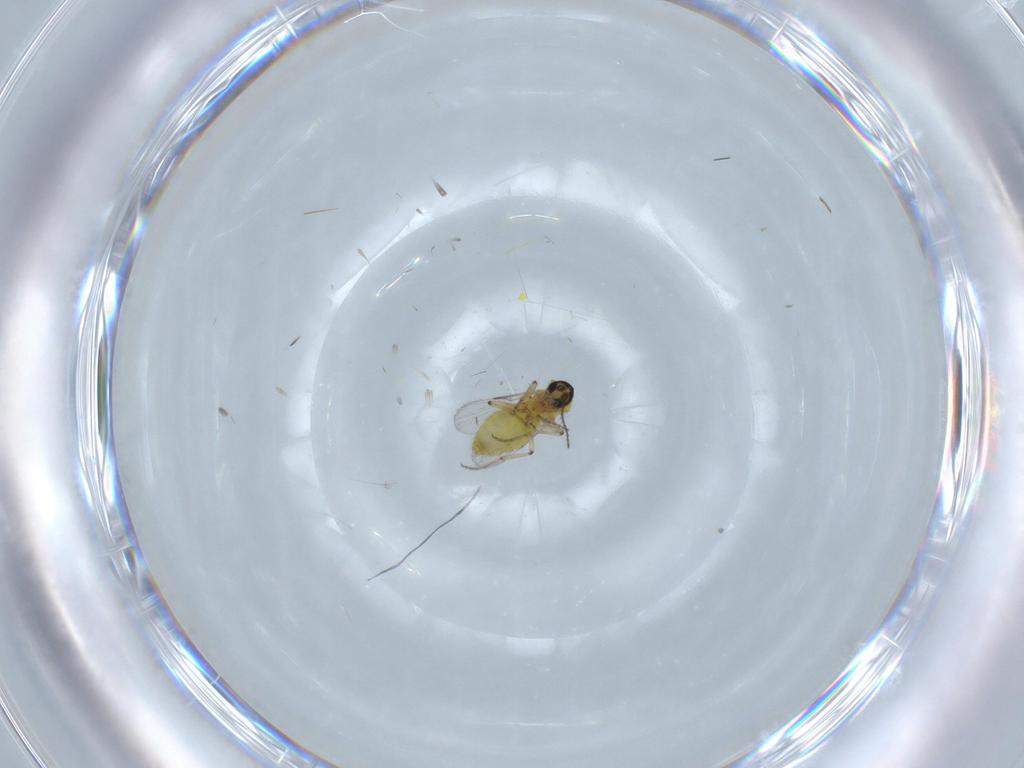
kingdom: Animalia
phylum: Arthropoda
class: Insecta
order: Diptera
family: Ceratopogonidae
